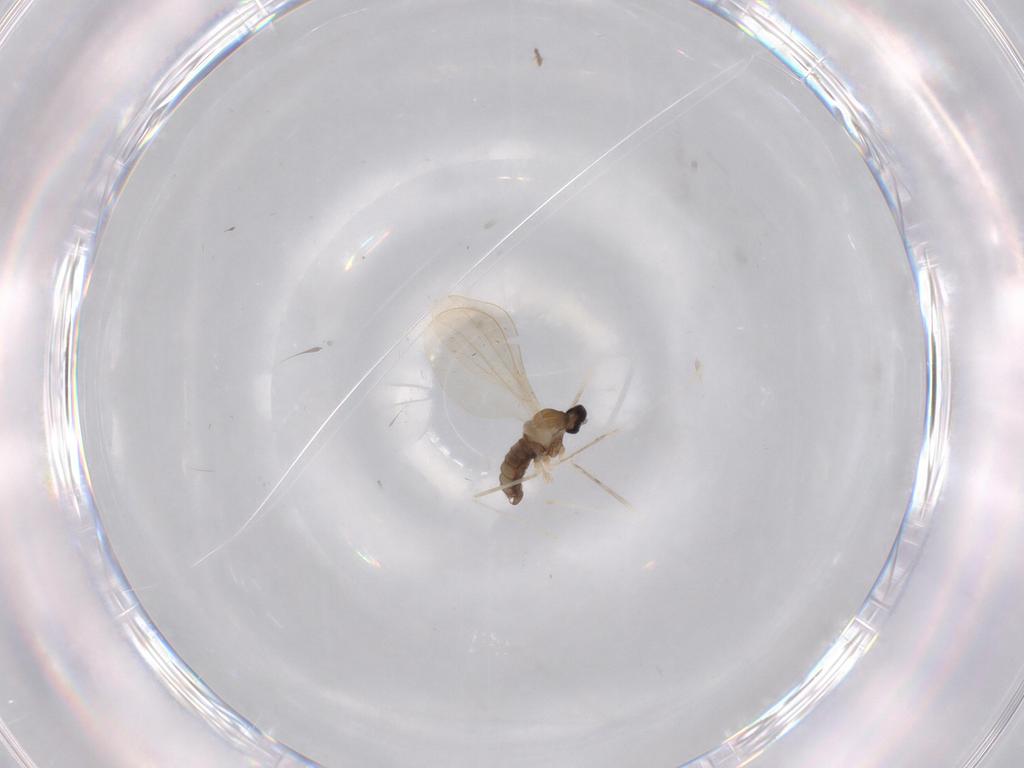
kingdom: Animalia
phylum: Arthropoda
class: Insecta
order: Diptera
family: Cecidomyiidae
